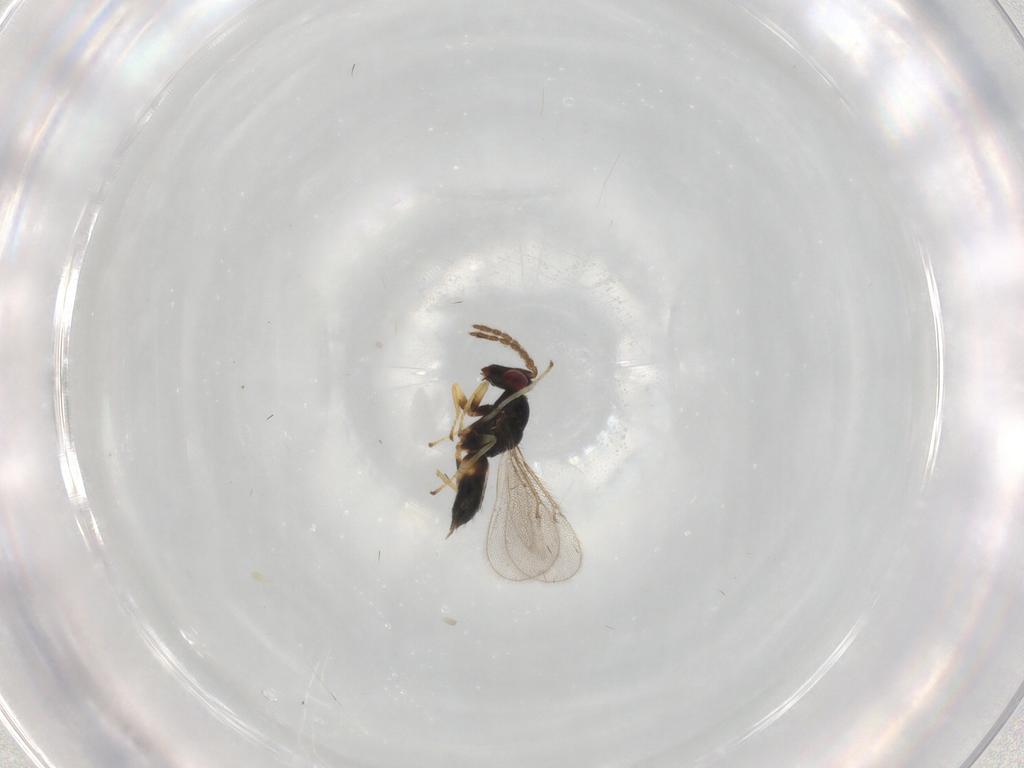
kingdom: Animalia
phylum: Arthropoda
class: Insecta
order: Hymenoptera
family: Eulophidae
